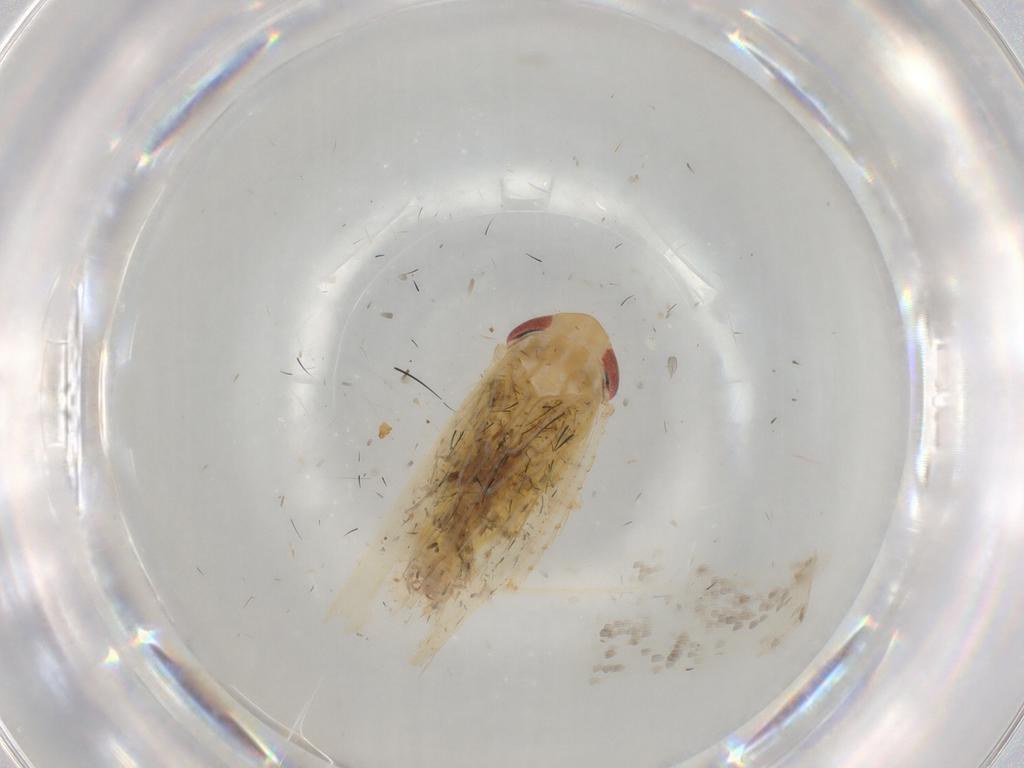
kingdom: Animalia
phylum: Arthropoda
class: Insecta
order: Hemiptera
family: Cicadellidae
